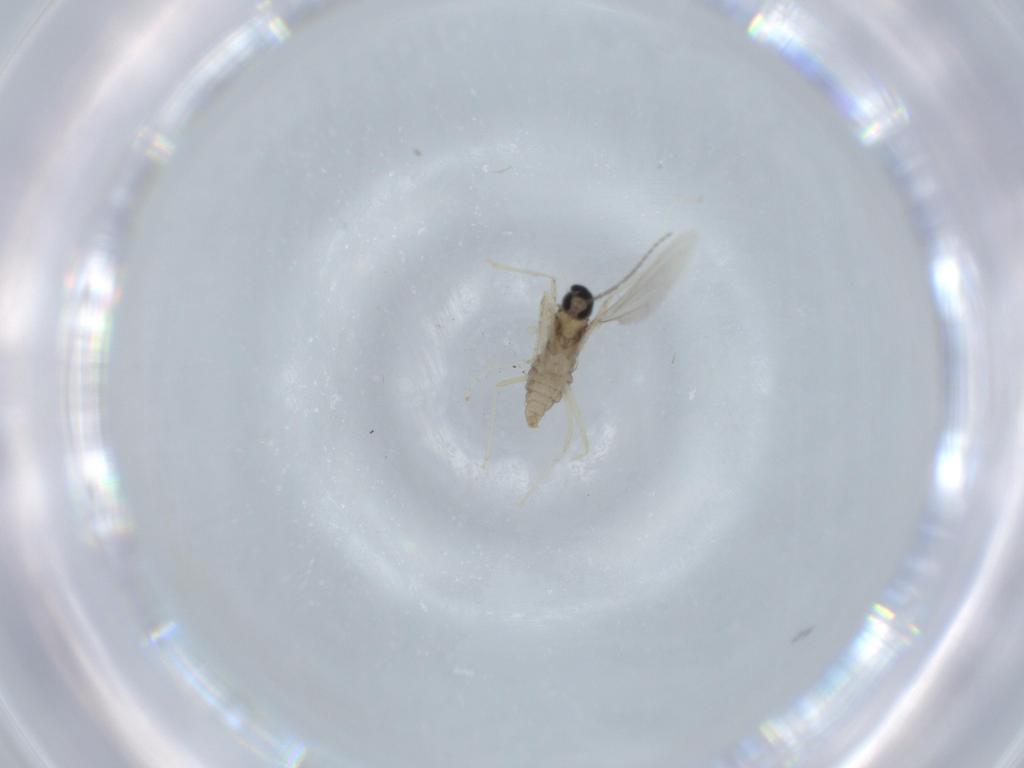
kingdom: Animalia
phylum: Arthropoda
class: Insecta
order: Diptera
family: Cecidomyiidae
